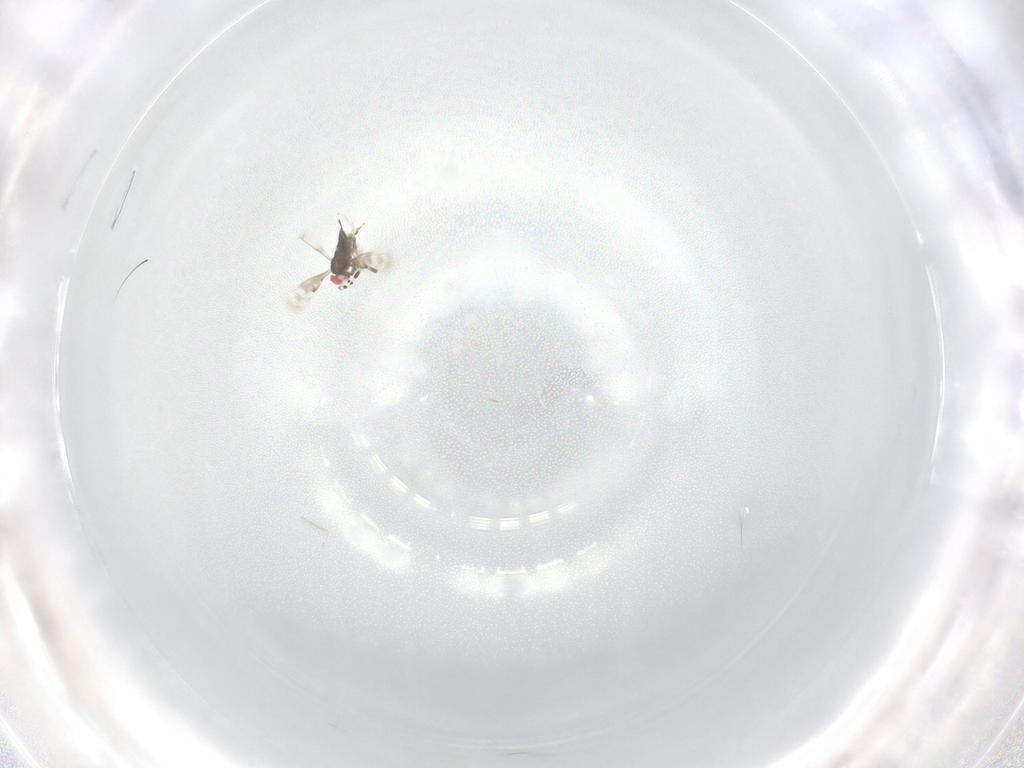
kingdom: Animalia
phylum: Arthropoda
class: Insecta
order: Hymenoptera
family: Azotidae
